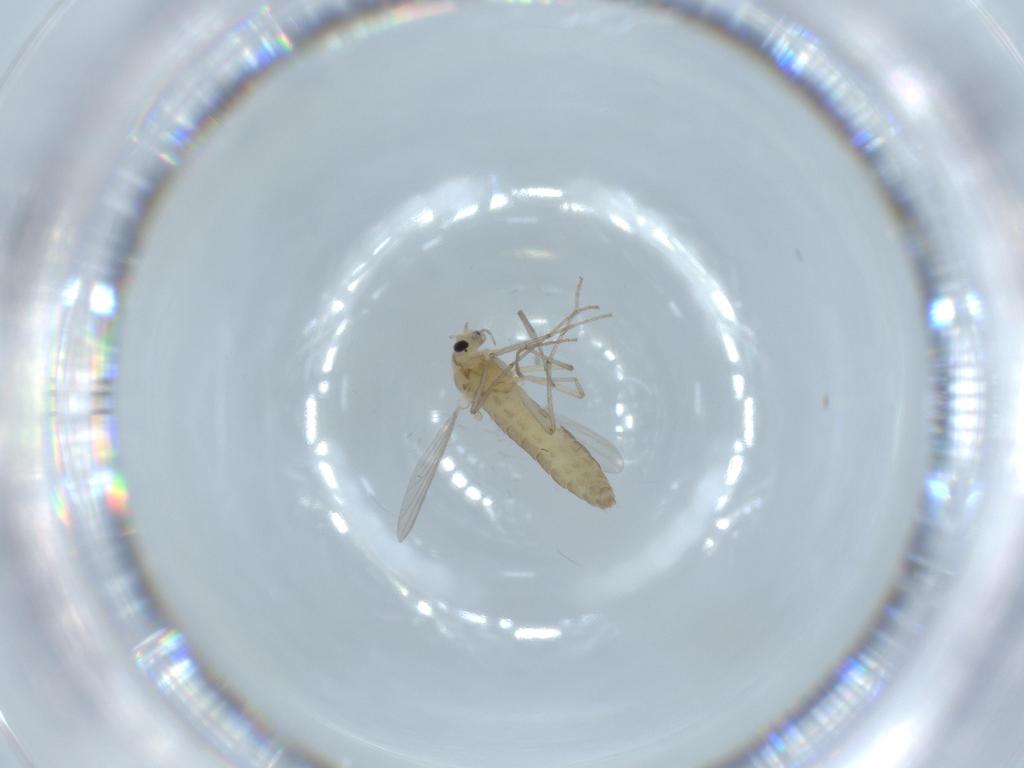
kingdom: Animalia
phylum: Arthropoda
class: Insecta
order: Diptera
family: Chironomidae
